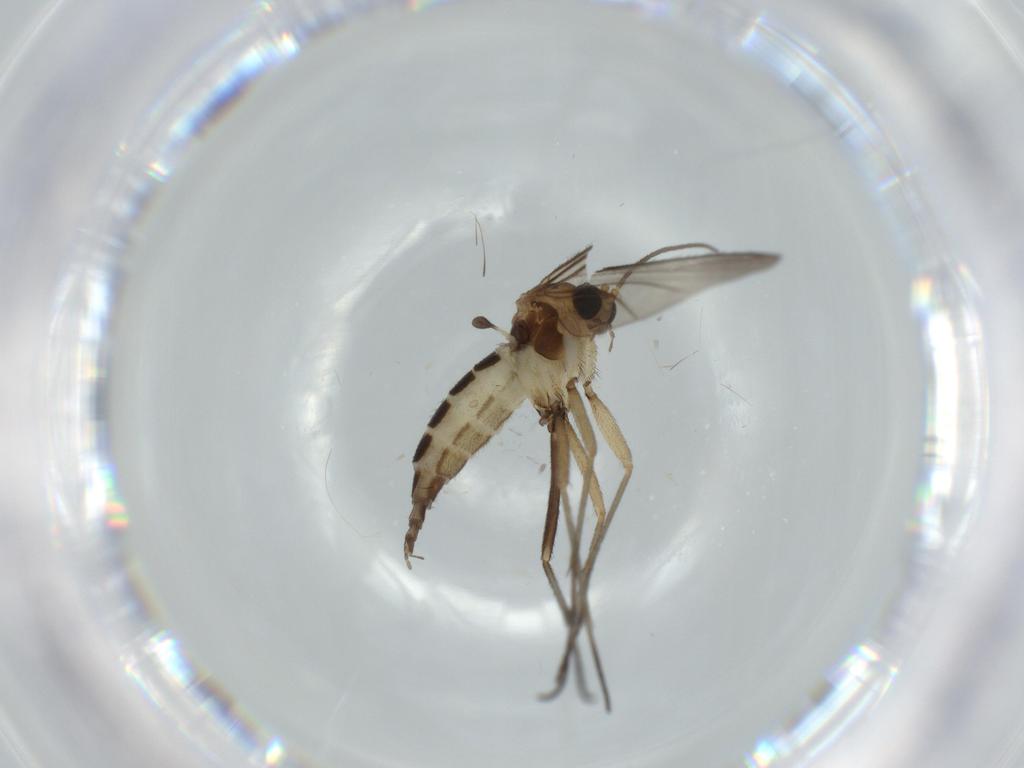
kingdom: Animalia
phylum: Arthropoda
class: Insecta
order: Diptera
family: Sciaridae
